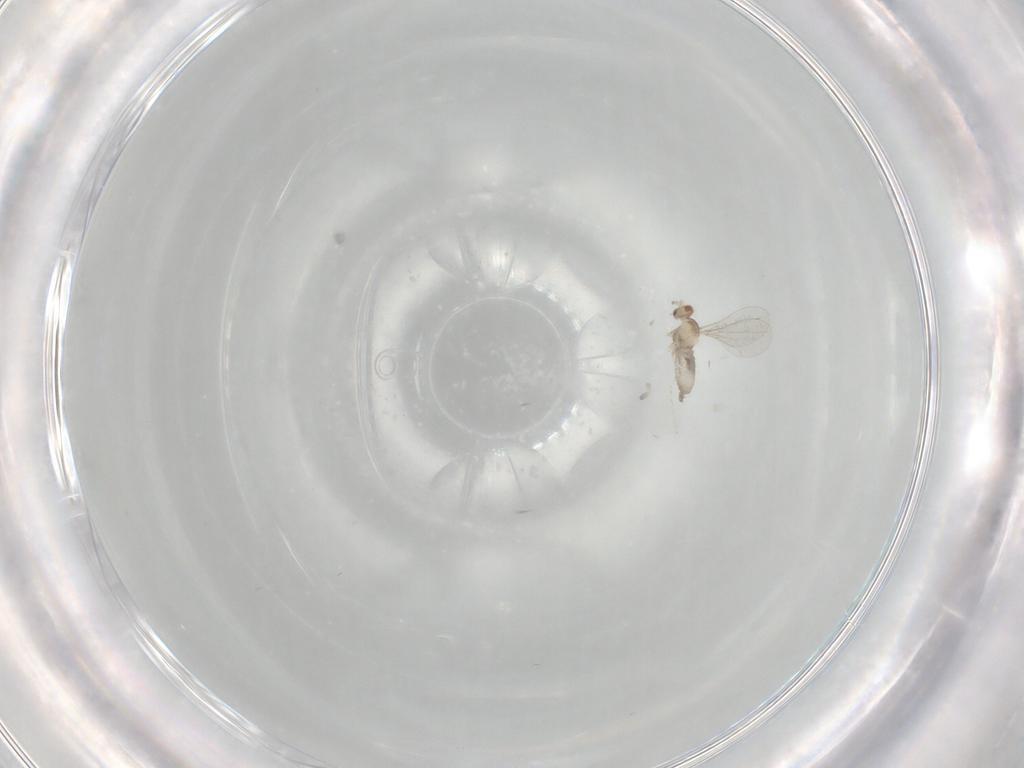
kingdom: Animalia
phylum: Arthropoda
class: Insecta
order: Diptera
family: Cecidomyiidae
